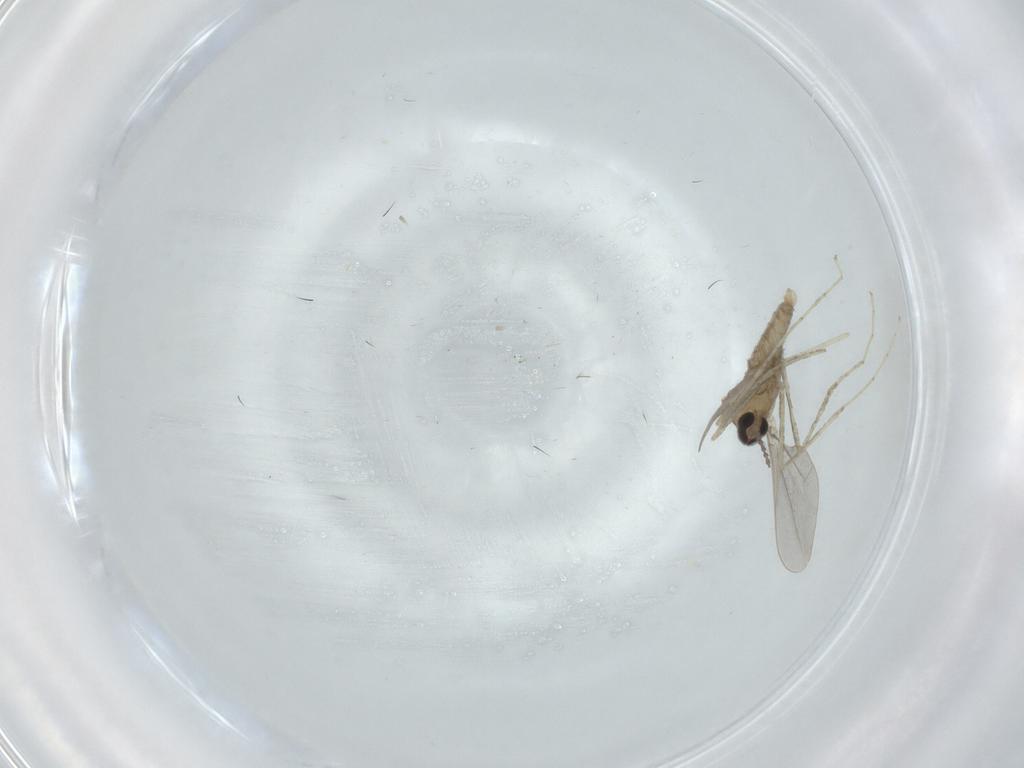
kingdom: Animalia
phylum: Arthropoda
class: Insecta
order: Diptera
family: Cecidomyiidae
